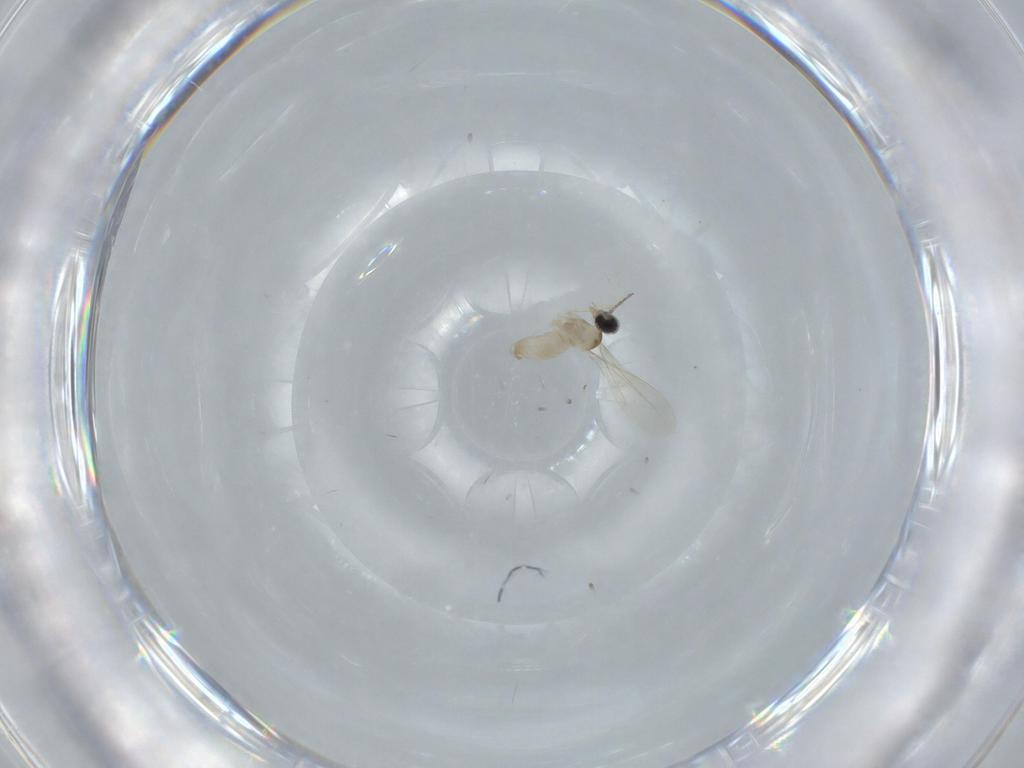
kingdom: Animalia
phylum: Arthropoda
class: Insecta
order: Diptera
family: Cecidomyiidae
